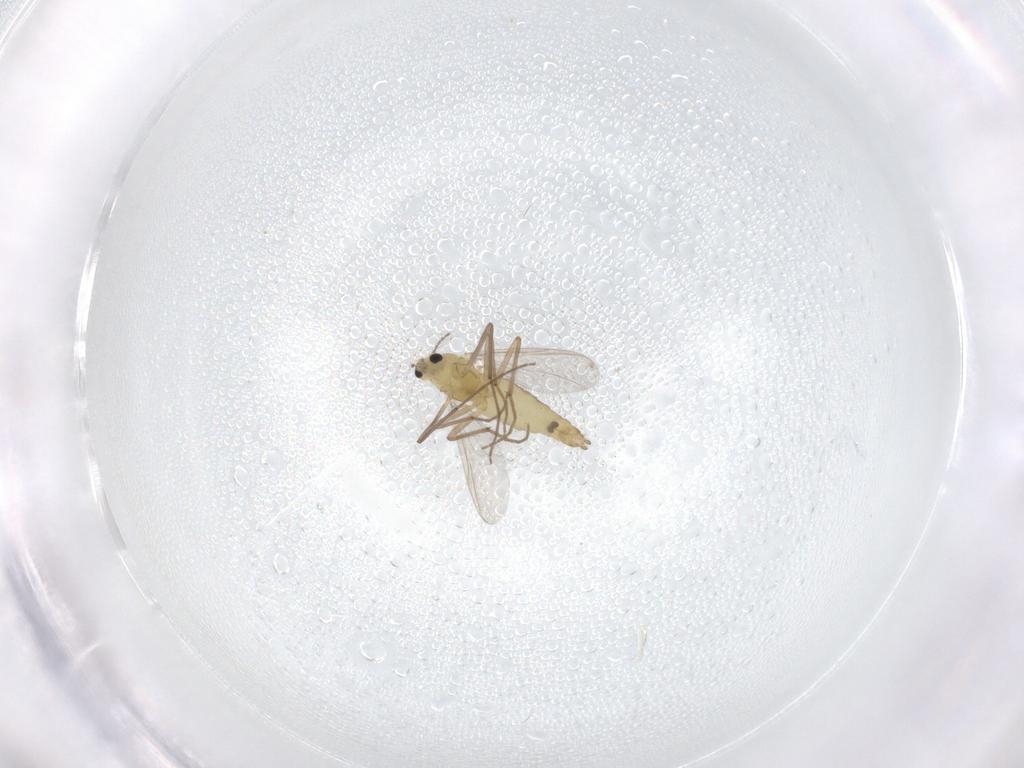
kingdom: Animalia
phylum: Arthropoda
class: Insecta
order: Diptera
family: Chironomidae
